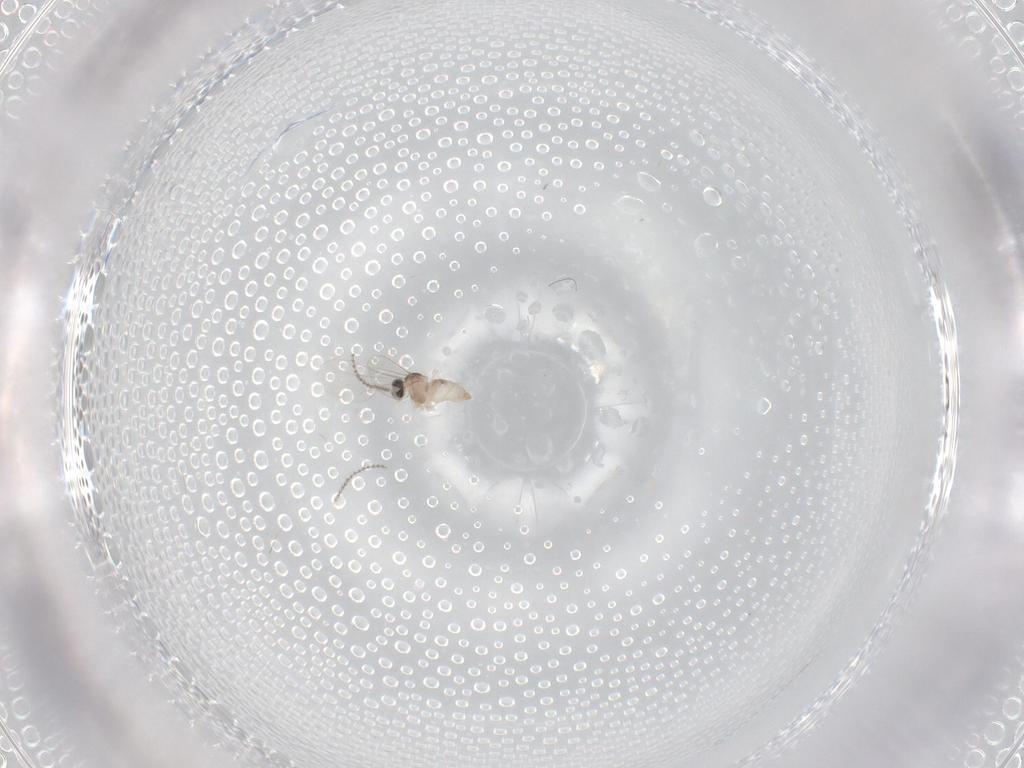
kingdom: Animalia
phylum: Arthropoda
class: Insecta
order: Diptera
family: Cecidomyiidae
